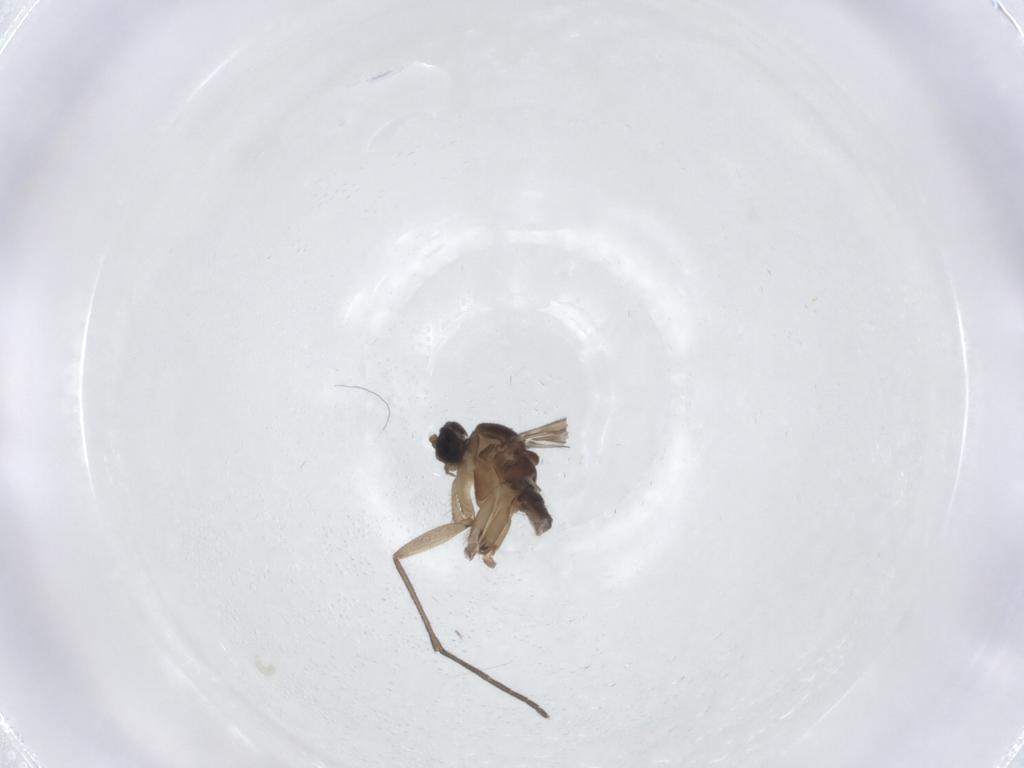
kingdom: Animalia
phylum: Arthropoda
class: Insecta
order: Diptera
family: Sciaridae
